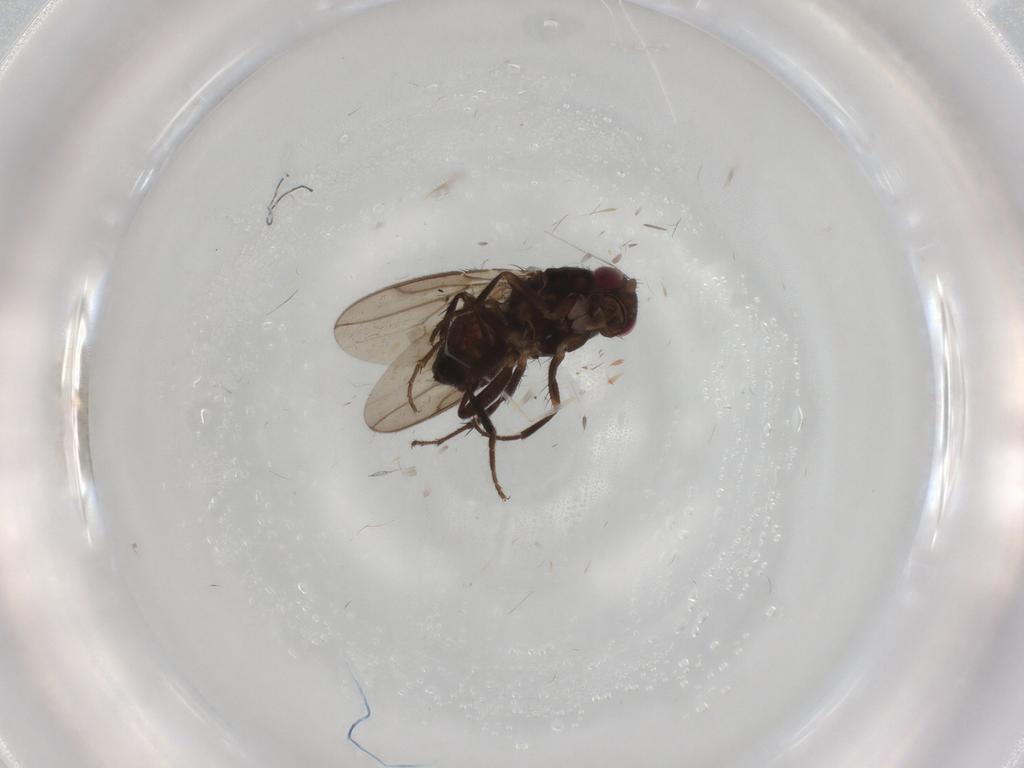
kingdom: Animalia
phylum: Arthropoda
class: Insecta
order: Diptera
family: Sphaeroceridae
